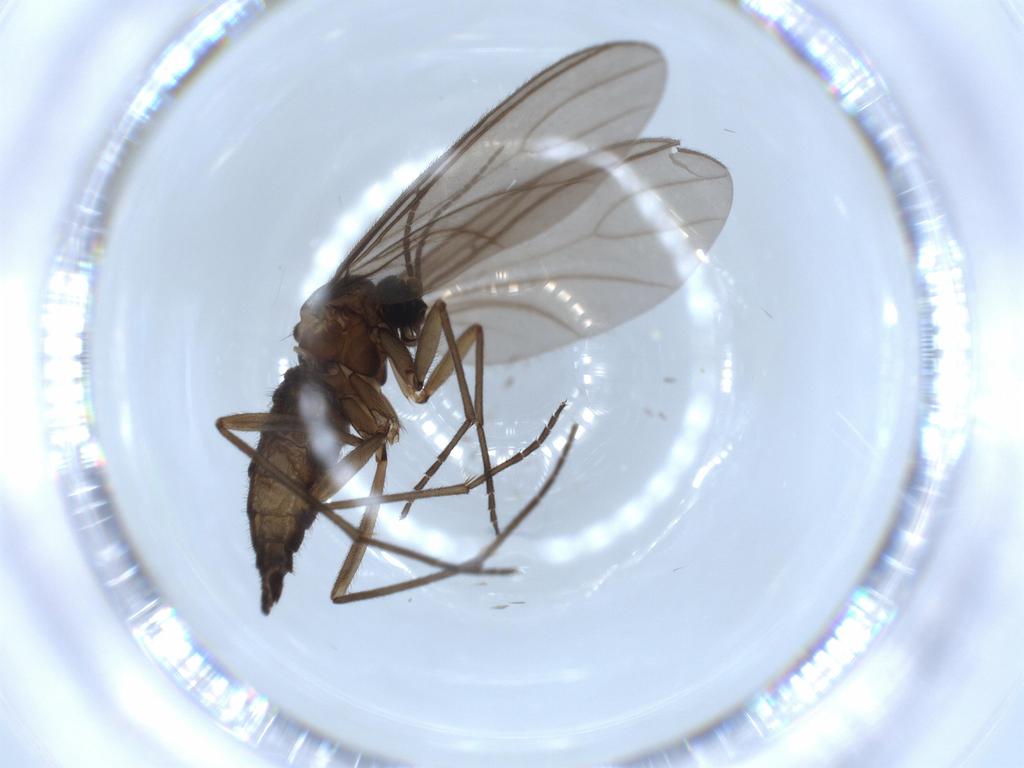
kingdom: Animalia
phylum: Arthropoda
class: Insecta
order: Diptera
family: Sciaridae
